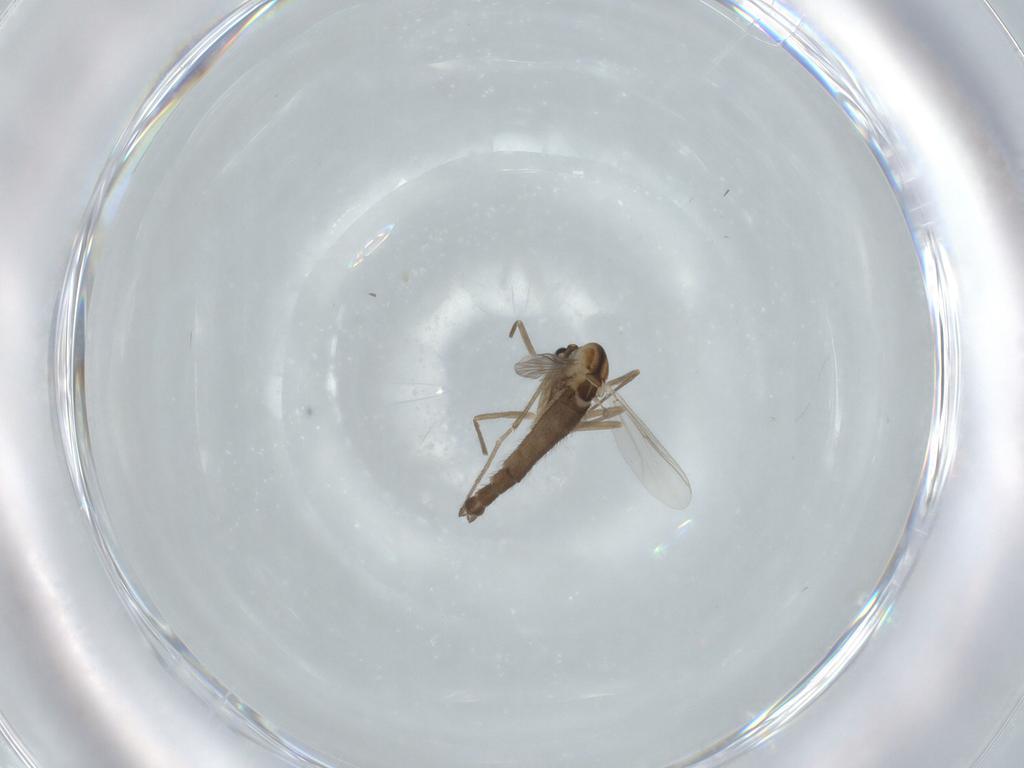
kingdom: Animalia
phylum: Arthropoda
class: Insecta
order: Diptera
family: Chironomidae
